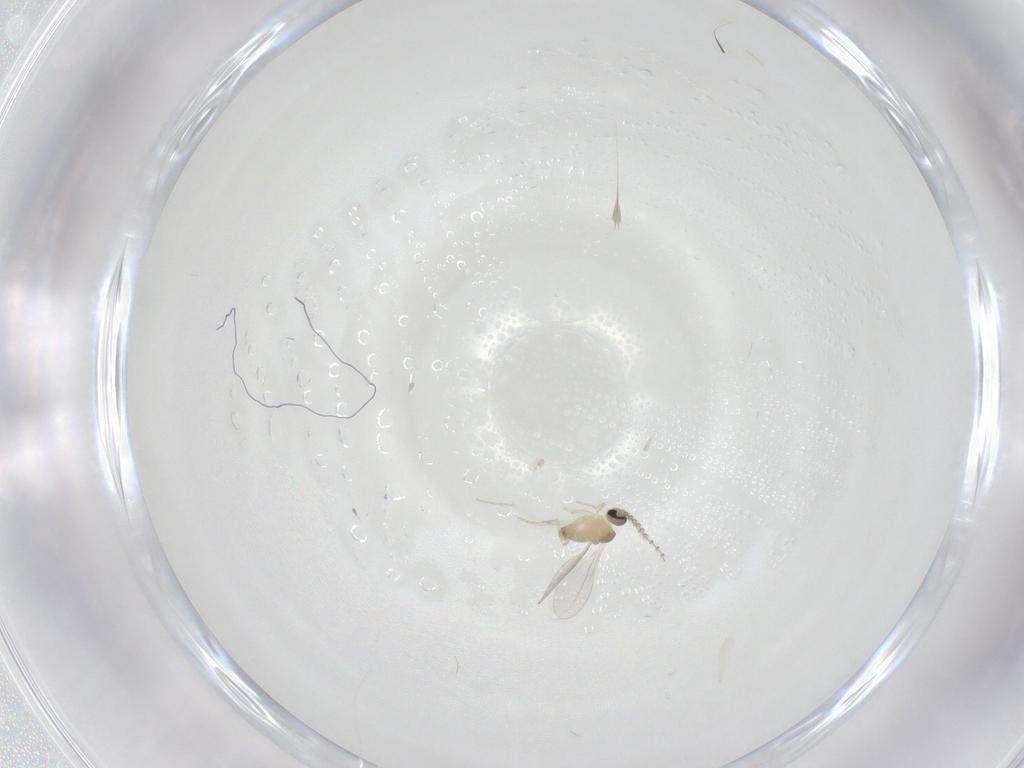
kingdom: Animalia
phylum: Arthropoda
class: Insecta
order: Diptera
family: Cecidomyiidae
